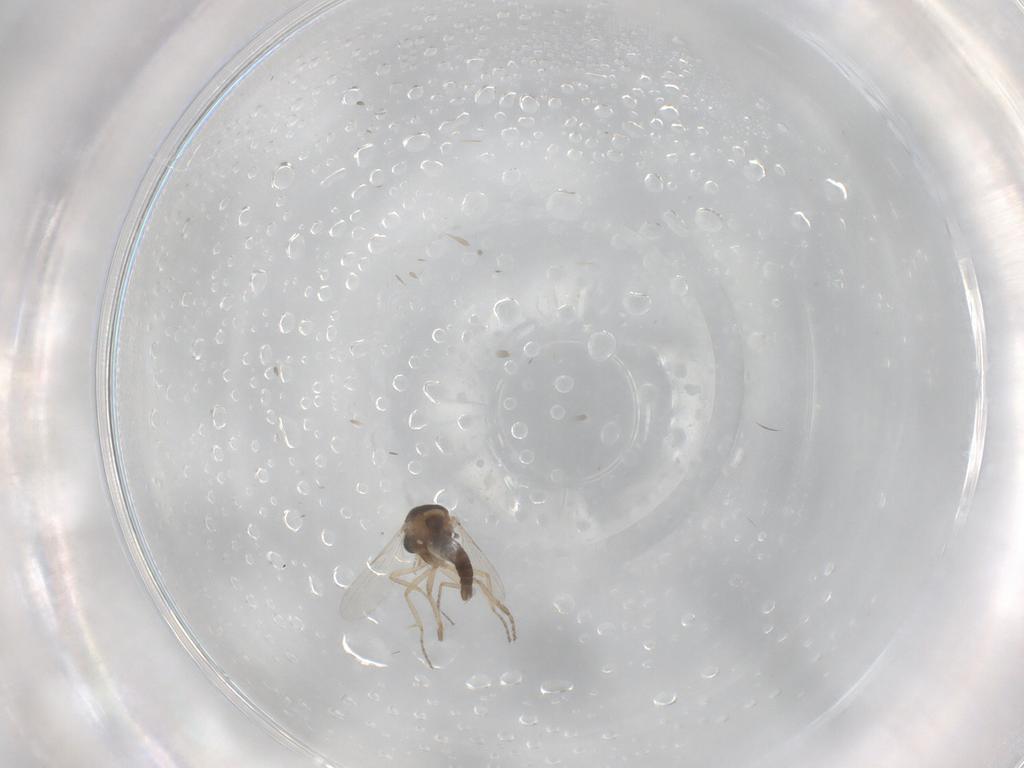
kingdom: Animalia
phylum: Arthropoda
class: Insecta
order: Diptera
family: Ceratopogonidae
